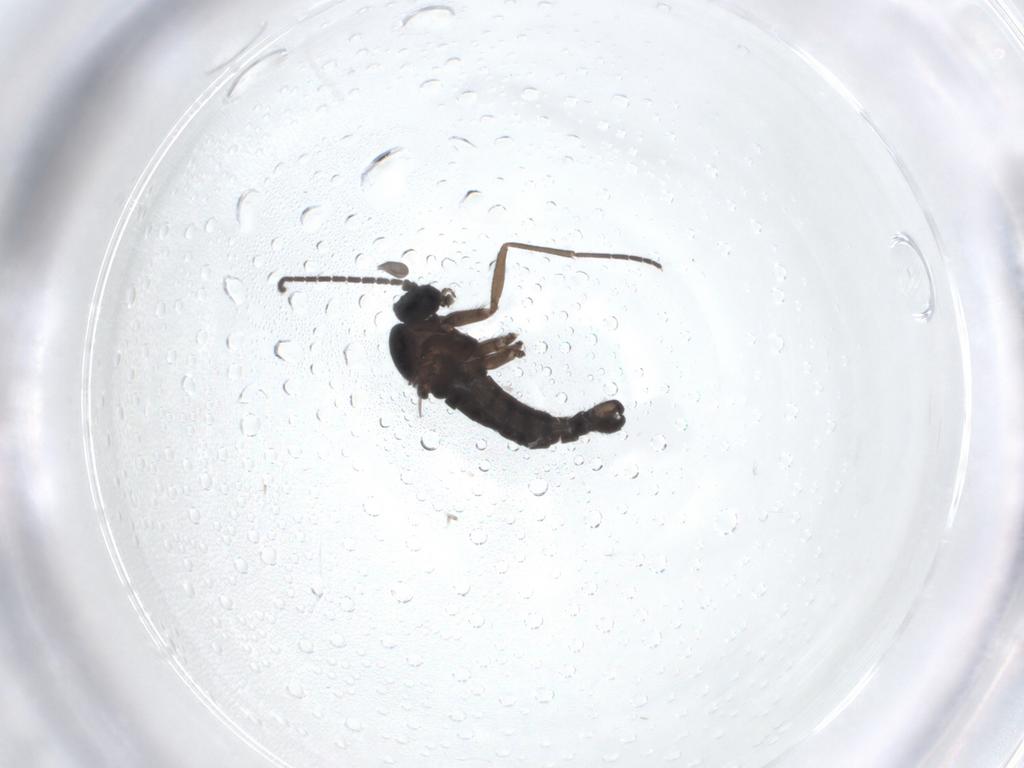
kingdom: Animalia
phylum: Arthropoda
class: Insecta
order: Diptera
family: Sciaridae
